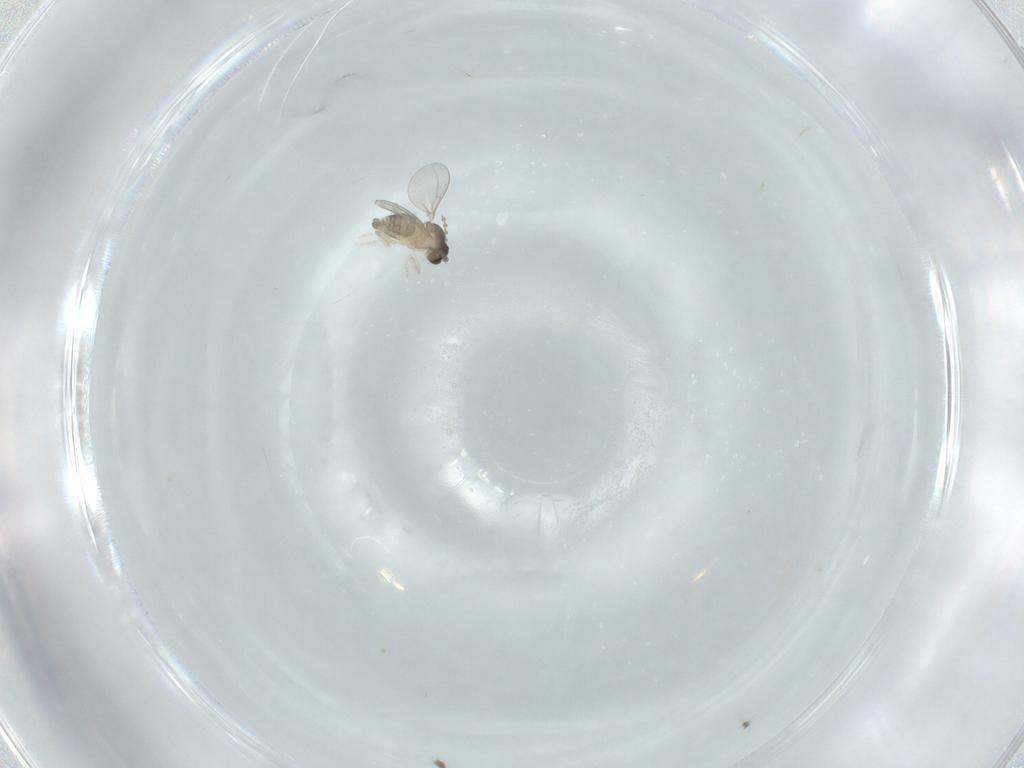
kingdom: Animalia
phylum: Arthropoda
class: Insecta
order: Diptera
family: Cecidomyiidae
